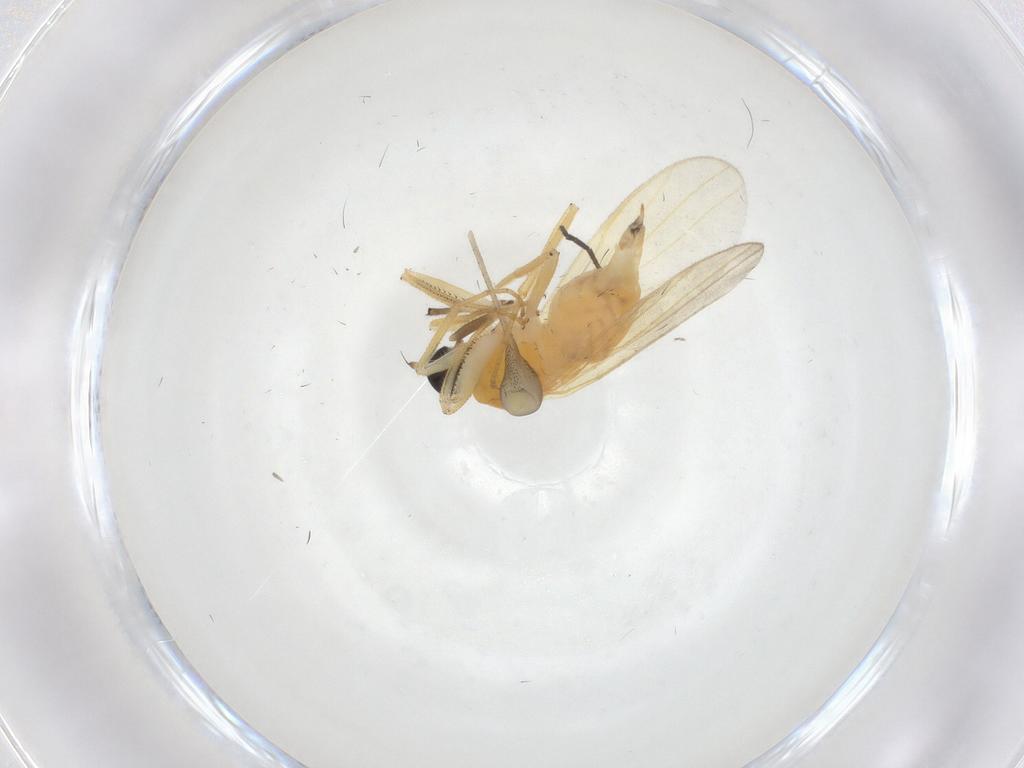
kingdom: Animalia
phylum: Arthropoda
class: Insecta
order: Diptera
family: Hybotidae
